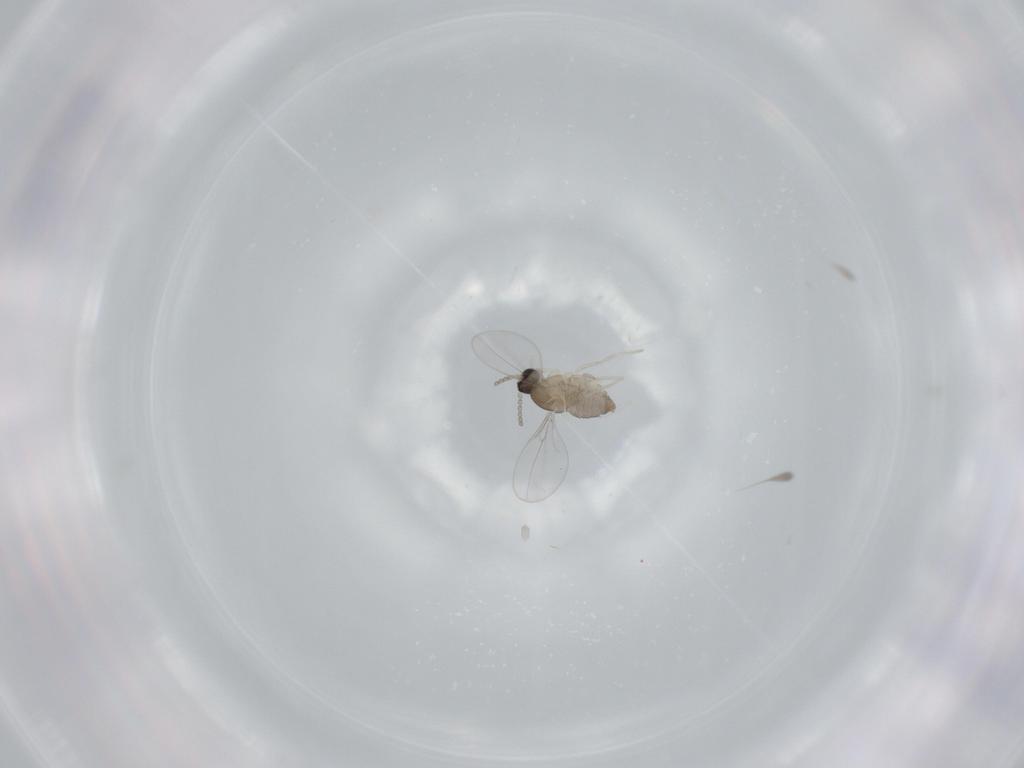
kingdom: Animalia
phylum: Arthropoda
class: Insecta
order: Diptera
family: Cecidomyiidae
